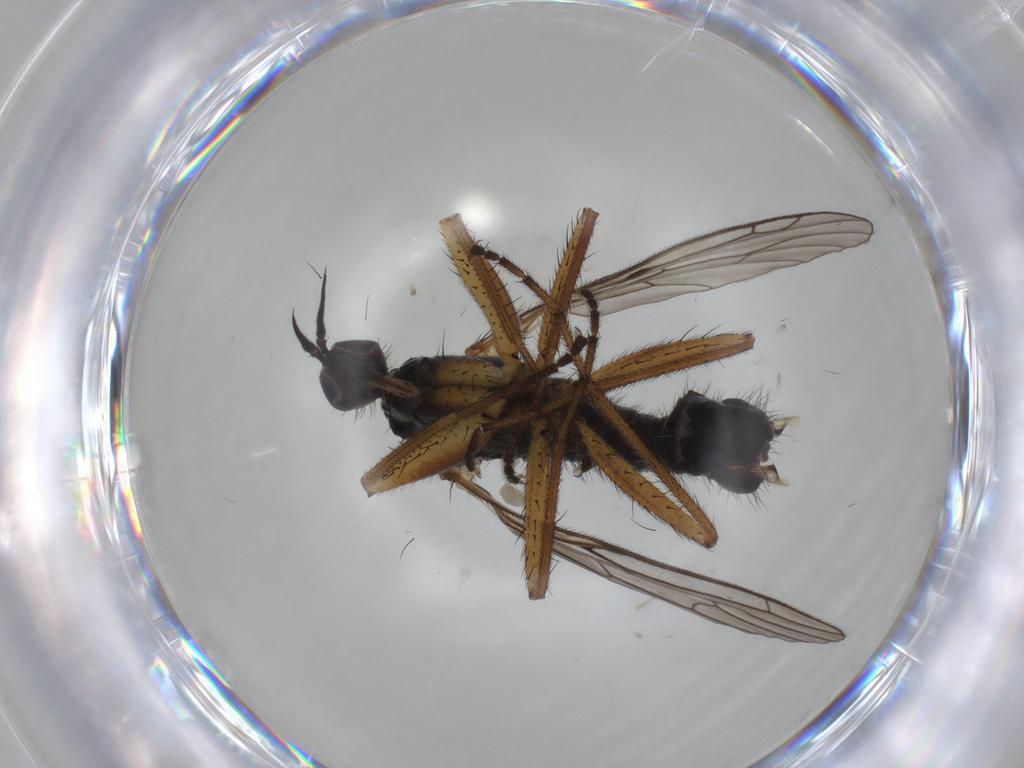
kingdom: Animalia
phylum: Arthropoda
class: Insecta
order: Diptera
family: Empididae
